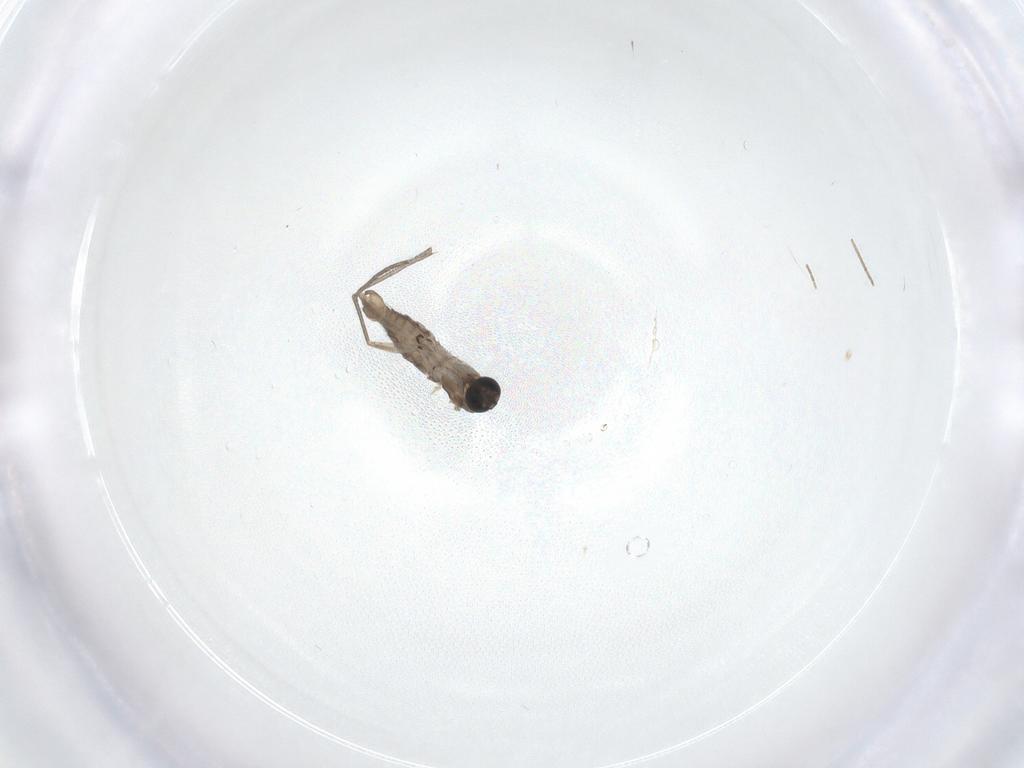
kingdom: Animalia
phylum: Arthropoda
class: Insecta
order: Diptera
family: Sciaridae
